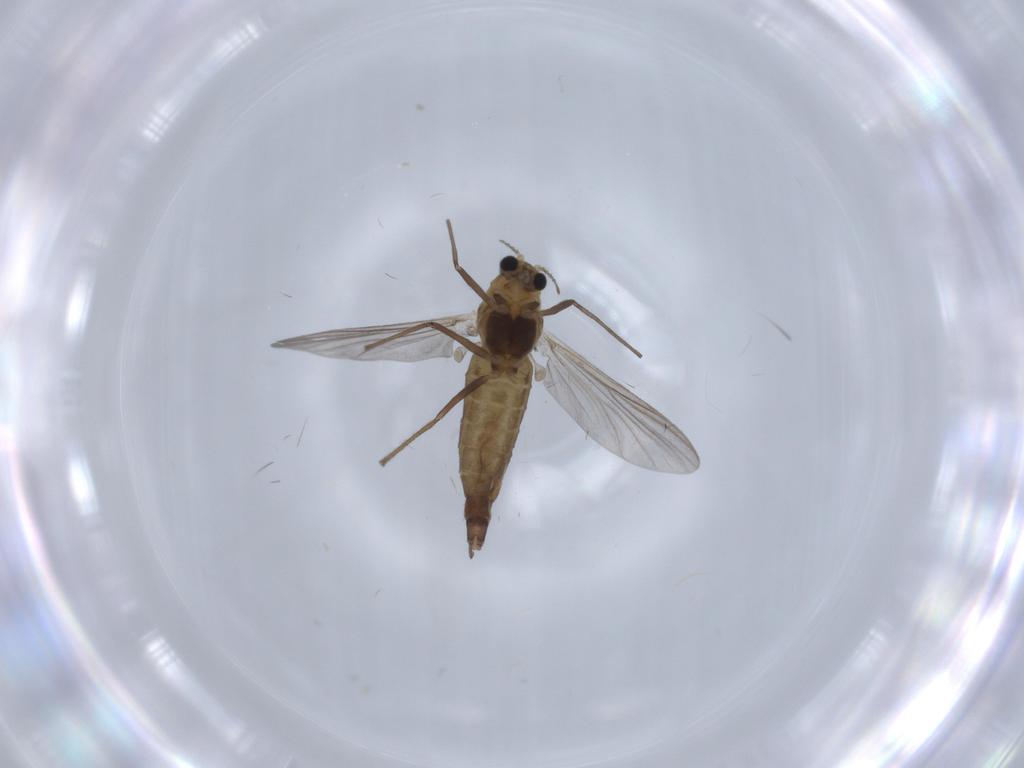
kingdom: Animalia
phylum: Arthropoda
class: Insecta
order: Diptera
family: Chironomidae
